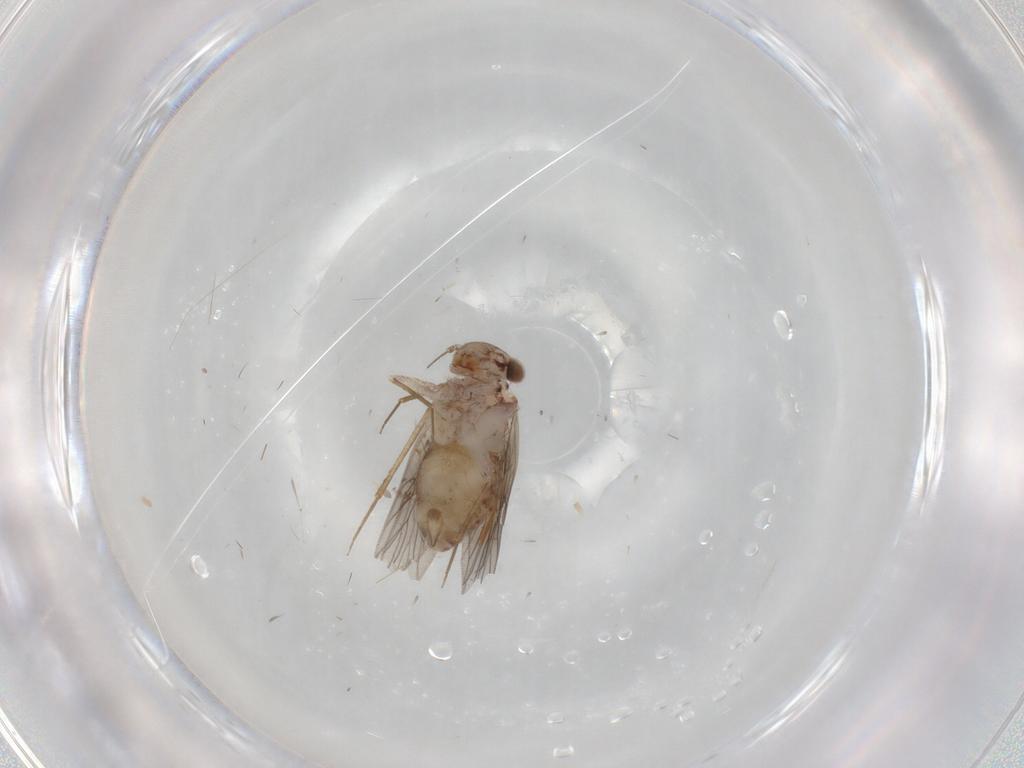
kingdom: Animalia
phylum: Arthropoda
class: Insecta
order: Psocodea
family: Lepidopsocidae
